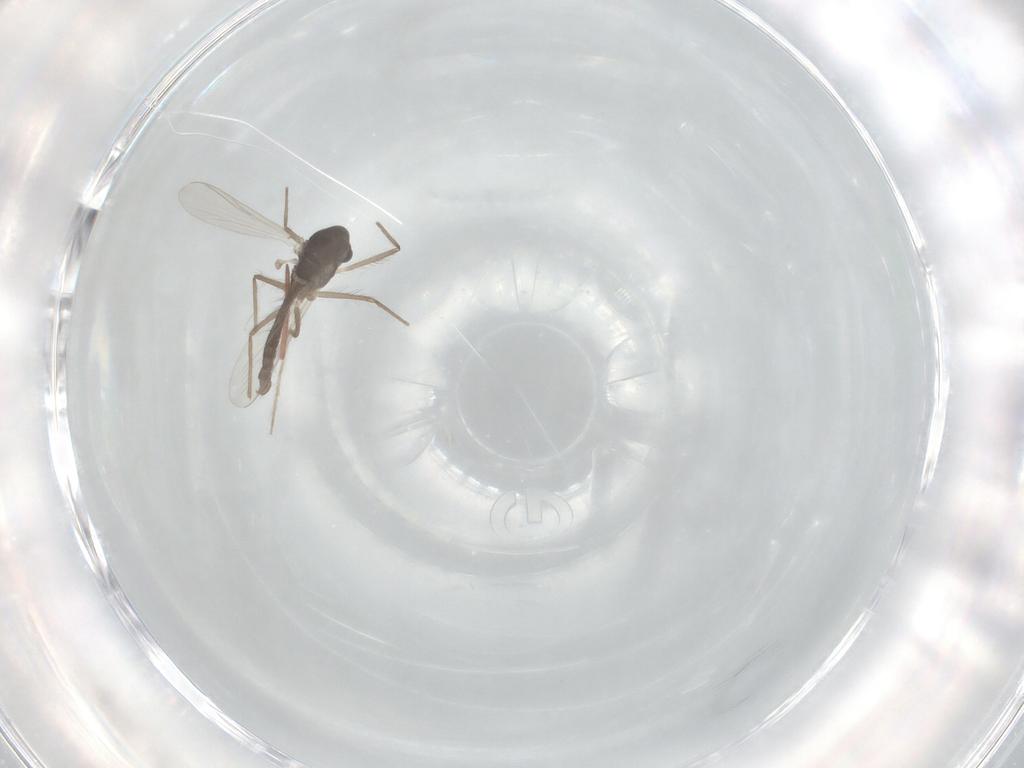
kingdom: Animalia
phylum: Arthropoda
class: Insecta
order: Diptera
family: Chironomidae
